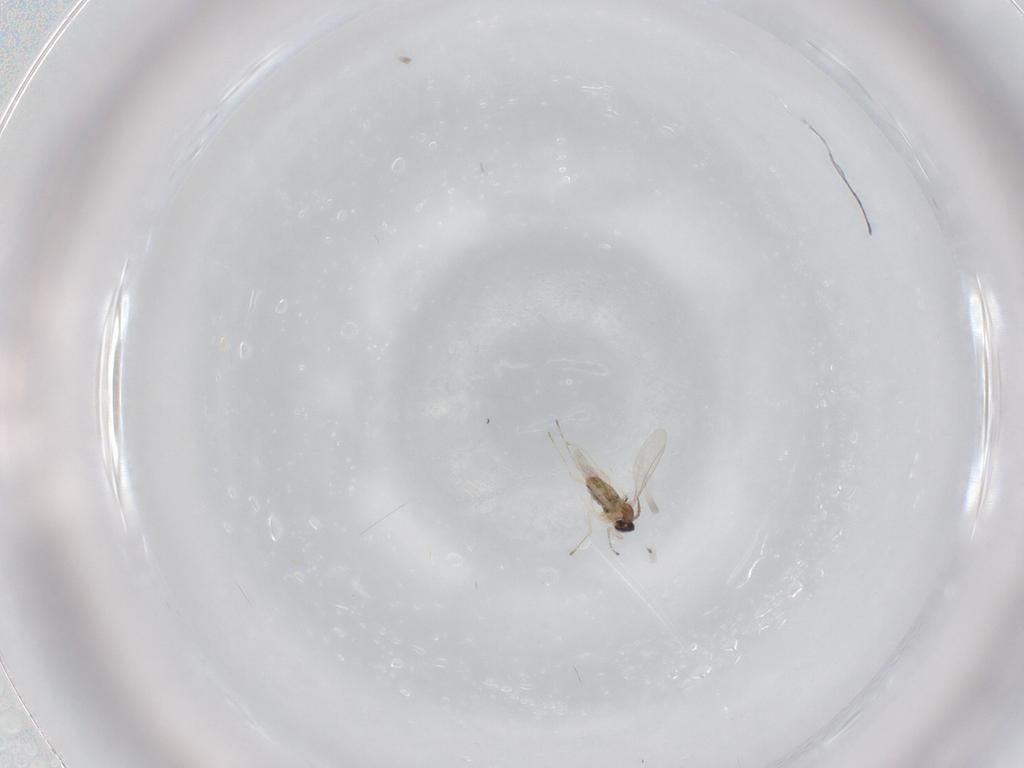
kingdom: Animalia
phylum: Arthropoda
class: Insecta
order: Diptera
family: Cecidomyiidae
